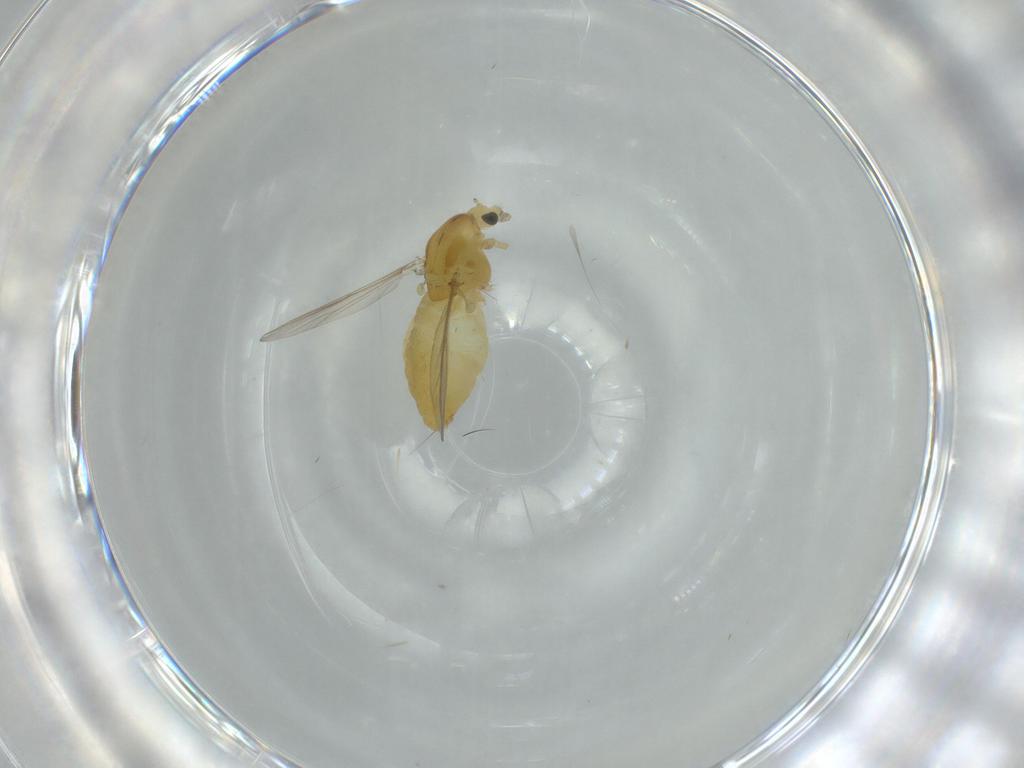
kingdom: Animalia
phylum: Arthropoda
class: Insecta
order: Diptera
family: Chironomidae
